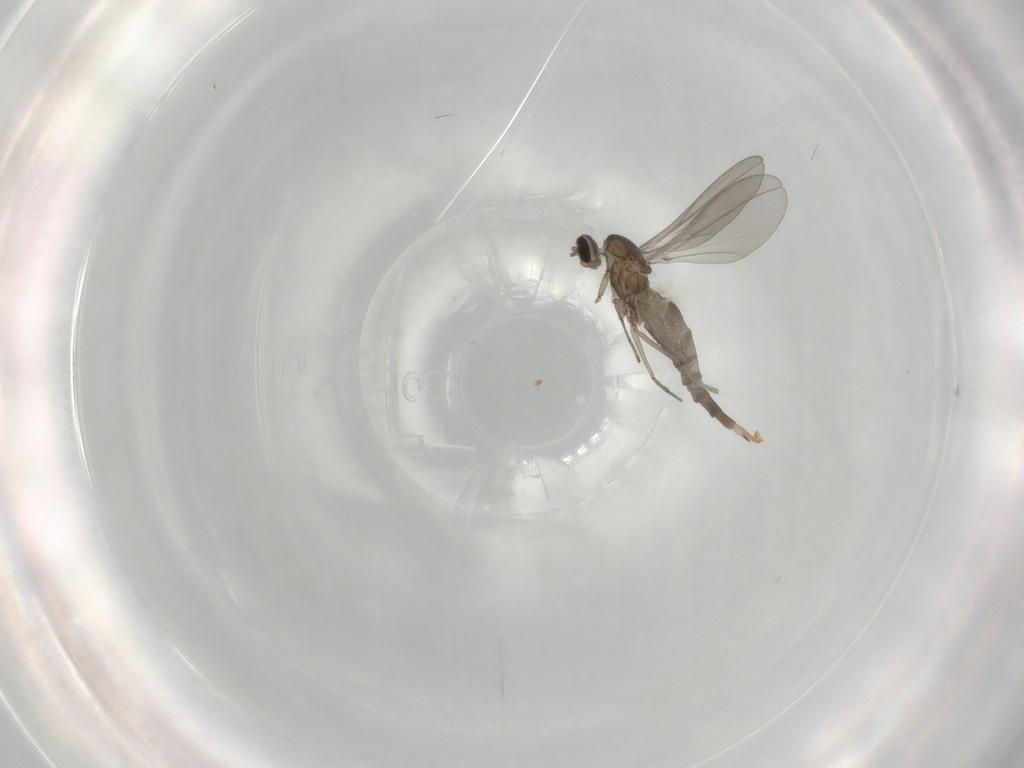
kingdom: Animalia
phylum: Arthropoda
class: Insecta
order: Diptera
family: Cecidomyiidae
